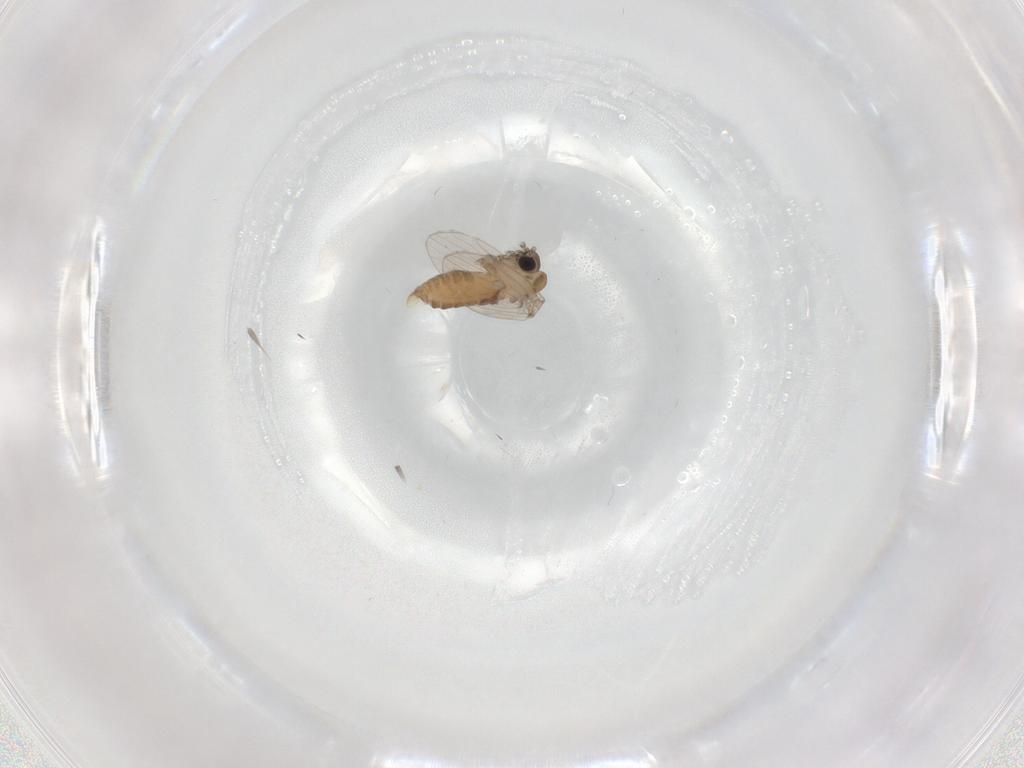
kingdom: Animalia
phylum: Arthropoda
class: Insecta
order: Diptera
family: Psychodidae
